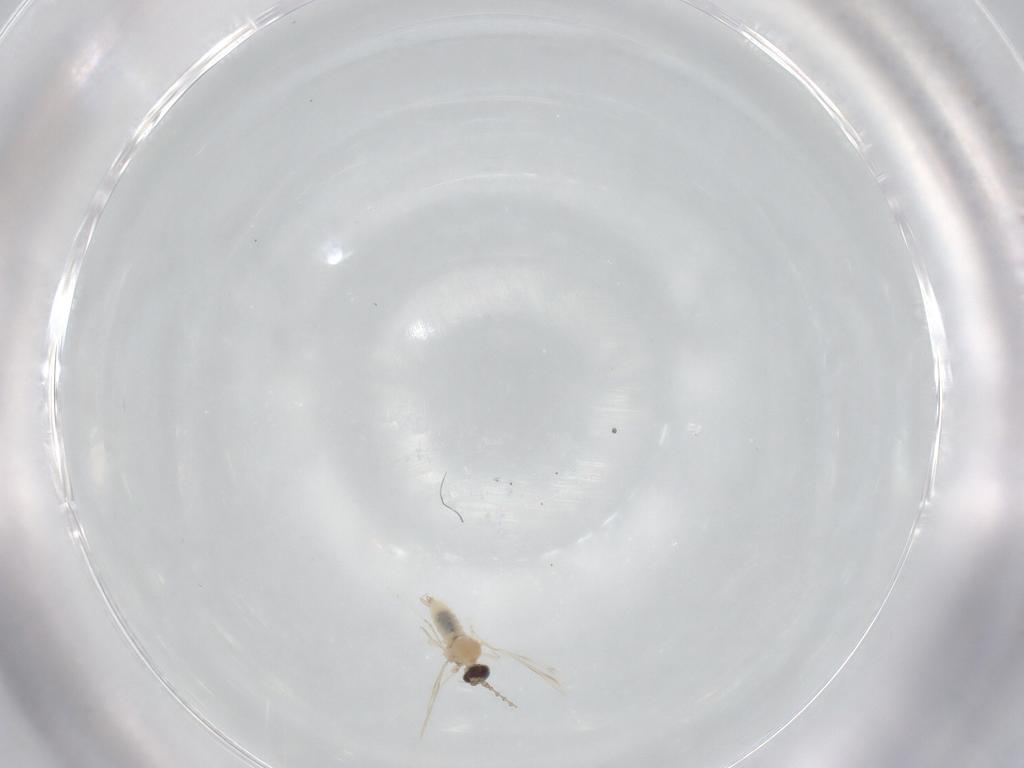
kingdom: Animalia
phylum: Arthropoda
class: Insecta
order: Diptera
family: Cecidomyiidae
